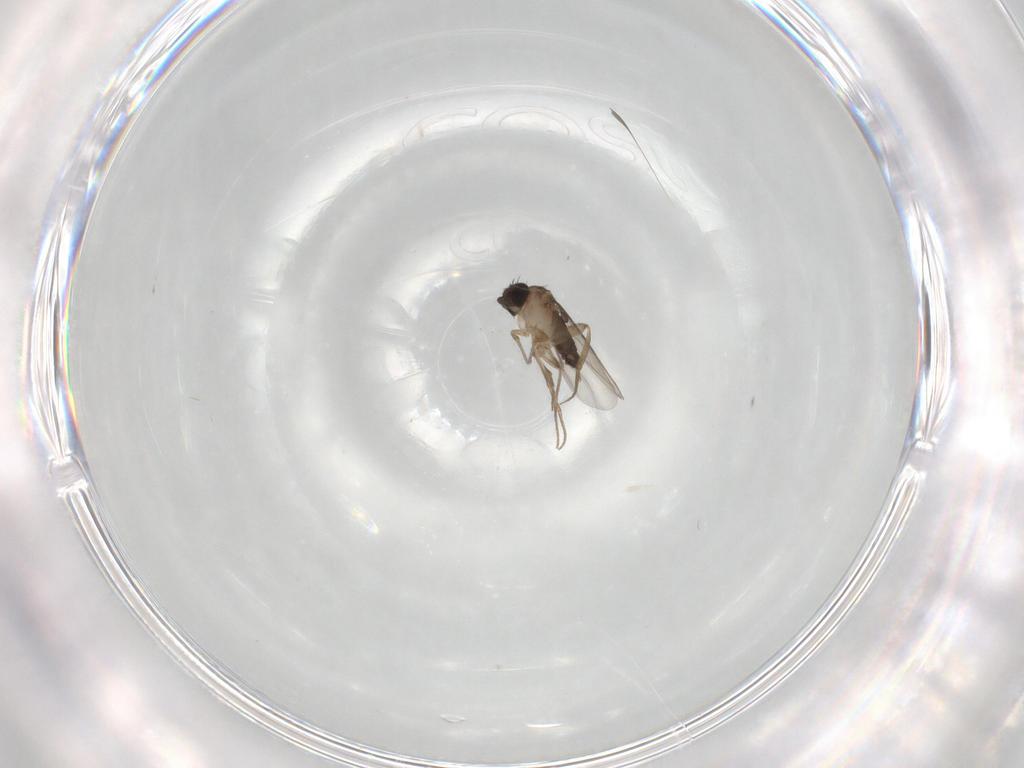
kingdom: Animalia
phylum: Arthropoda
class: Insecta
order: Diptera
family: Phoridae
